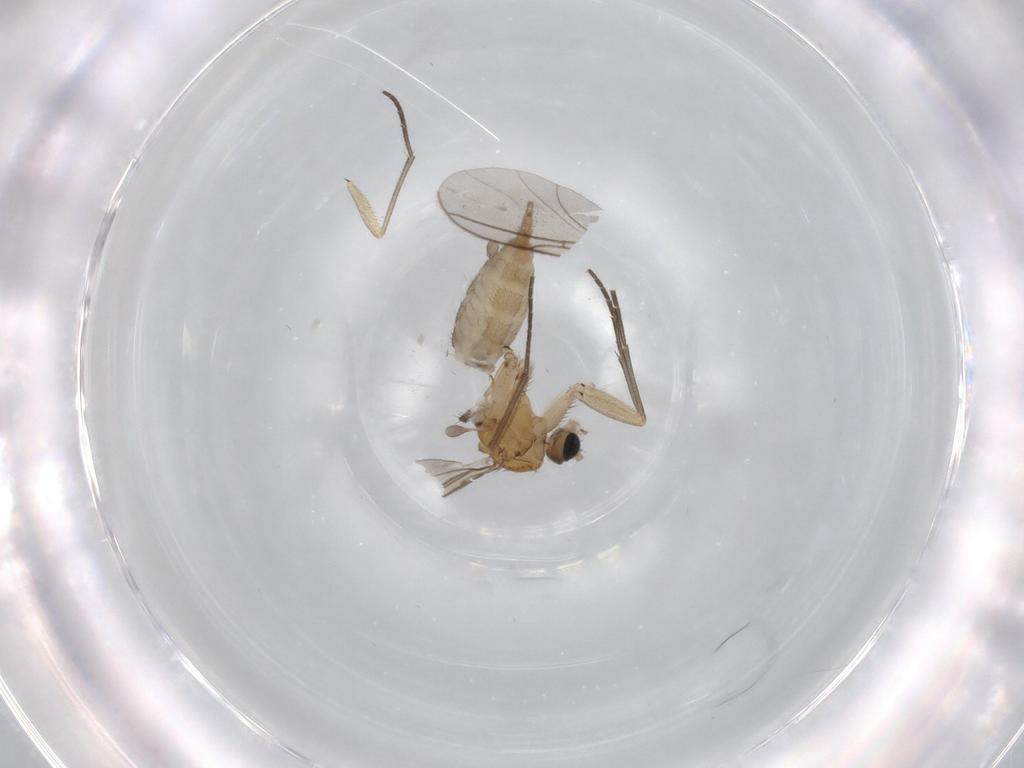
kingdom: Animalia
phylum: Arthropoda
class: Insecta
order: Diptera
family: Sciaridae
